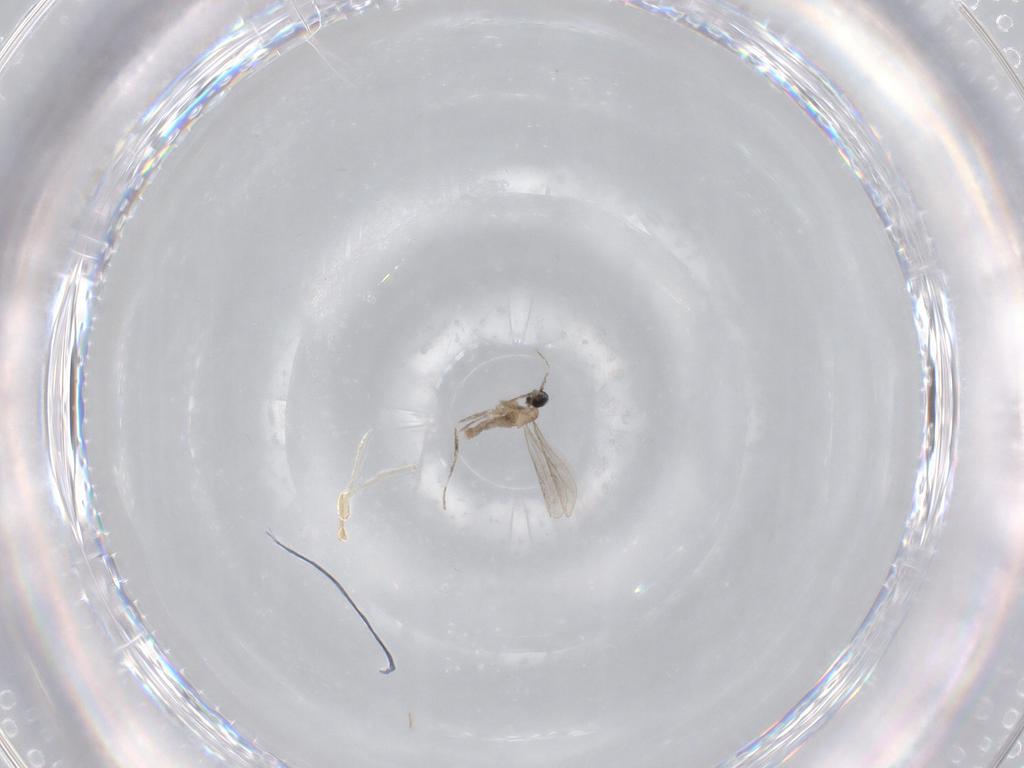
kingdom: Animalia
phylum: Arthropoda
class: Insecta
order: Diptera
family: Cecidomyiidae
